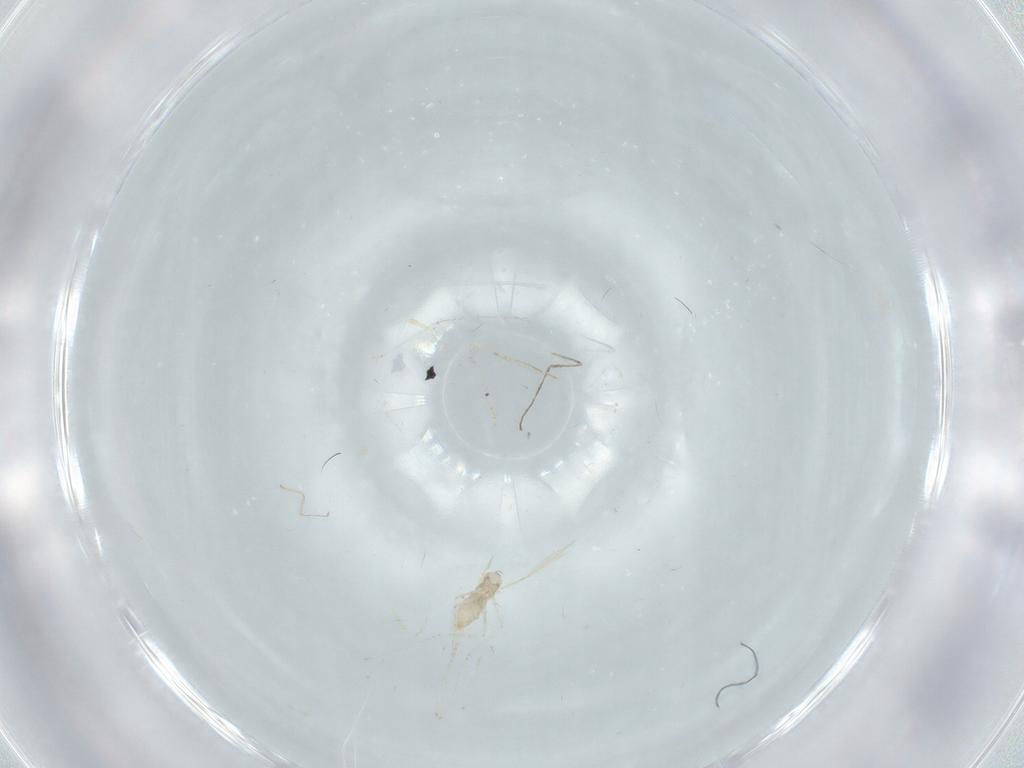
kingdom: Animalia
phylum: Arthropoda
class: Insecta
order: Diptera
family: Cecidomyiidae
